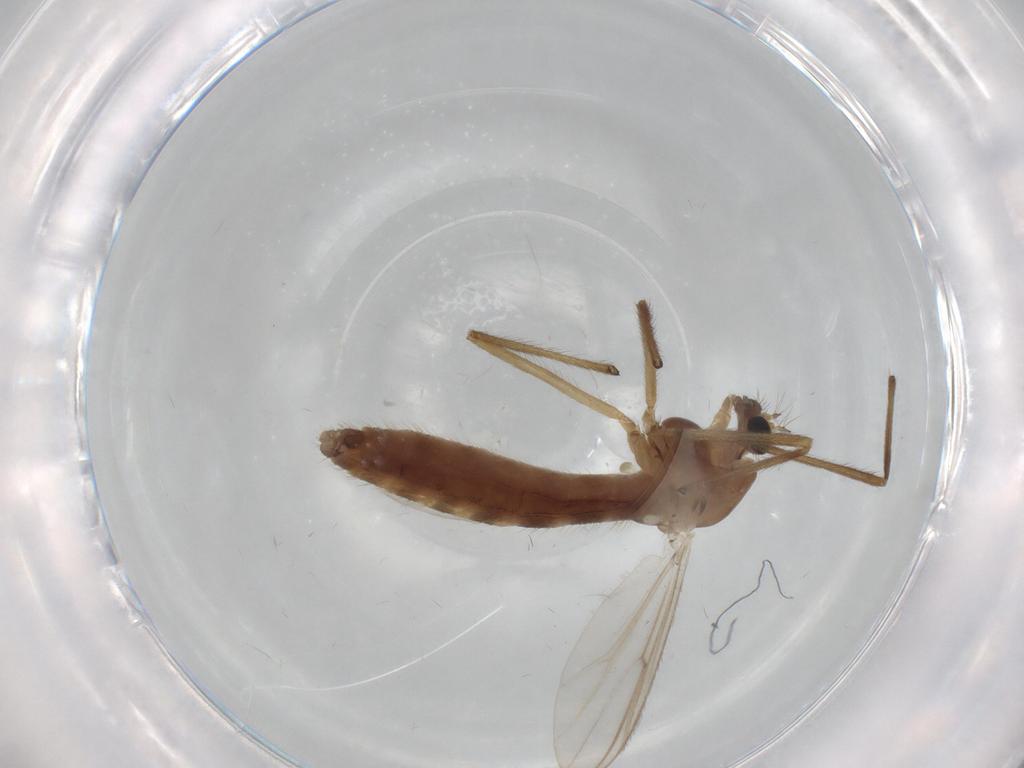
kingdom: Animalia
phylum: Arthropoda
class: Insecta
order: Diptera
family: Chironomidae
